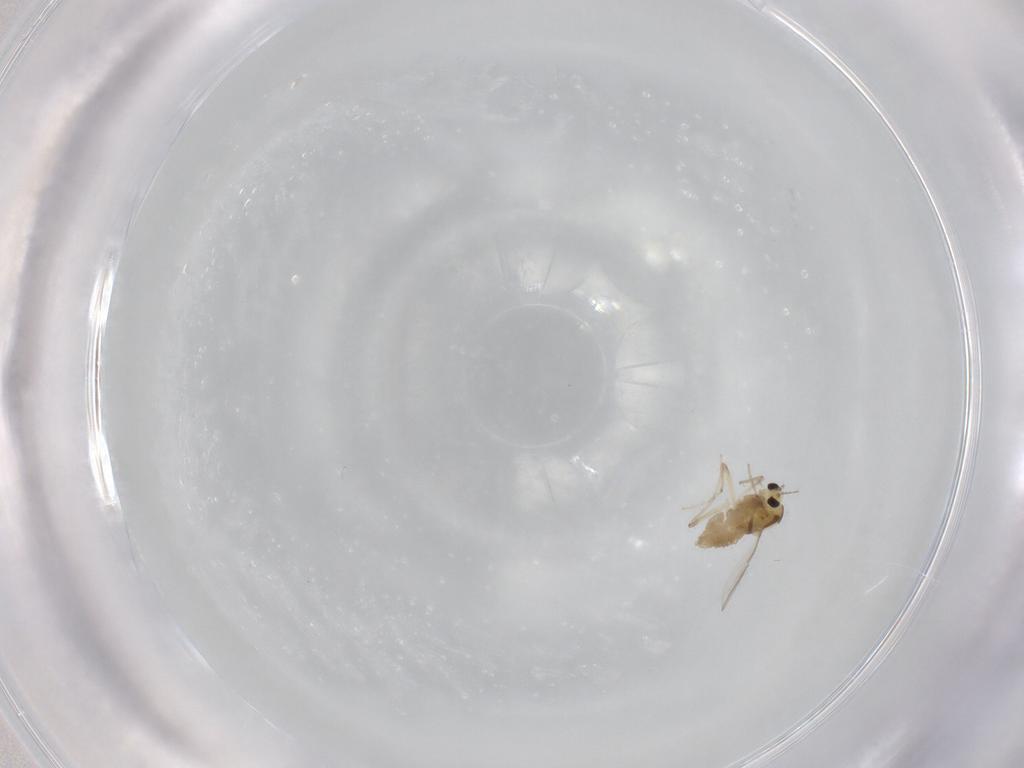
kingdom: Animalia
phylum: Arthropoda
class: Insecta
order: Diptera
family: Chironomidae
